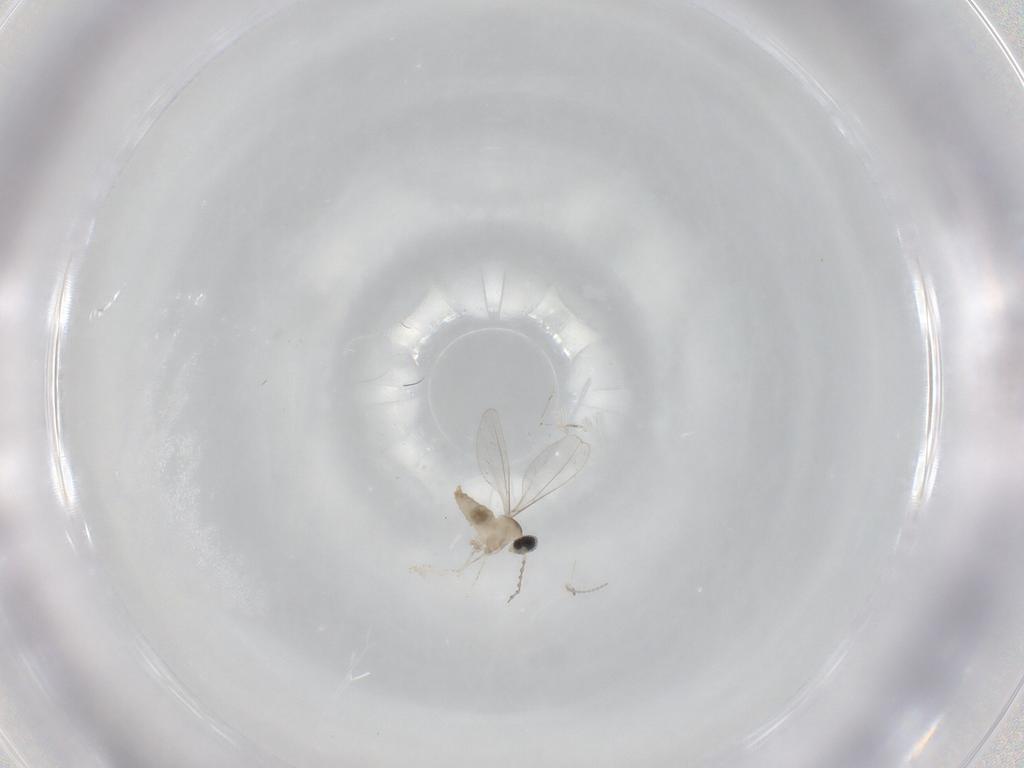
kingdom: Animalia
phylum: Arthropoda
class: Insecta
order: Diptera
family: Cecidomyiidae
